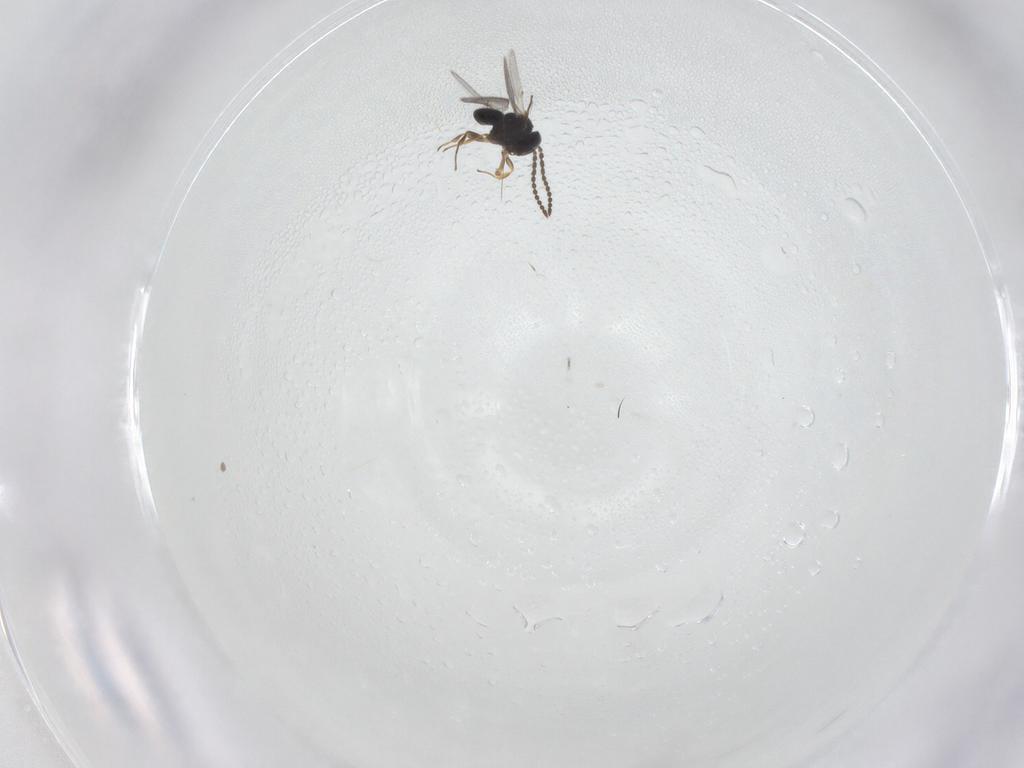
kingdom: Animalia
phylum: Arthropoda
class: Insecta
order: Hymenoptera
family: Scelionidae
